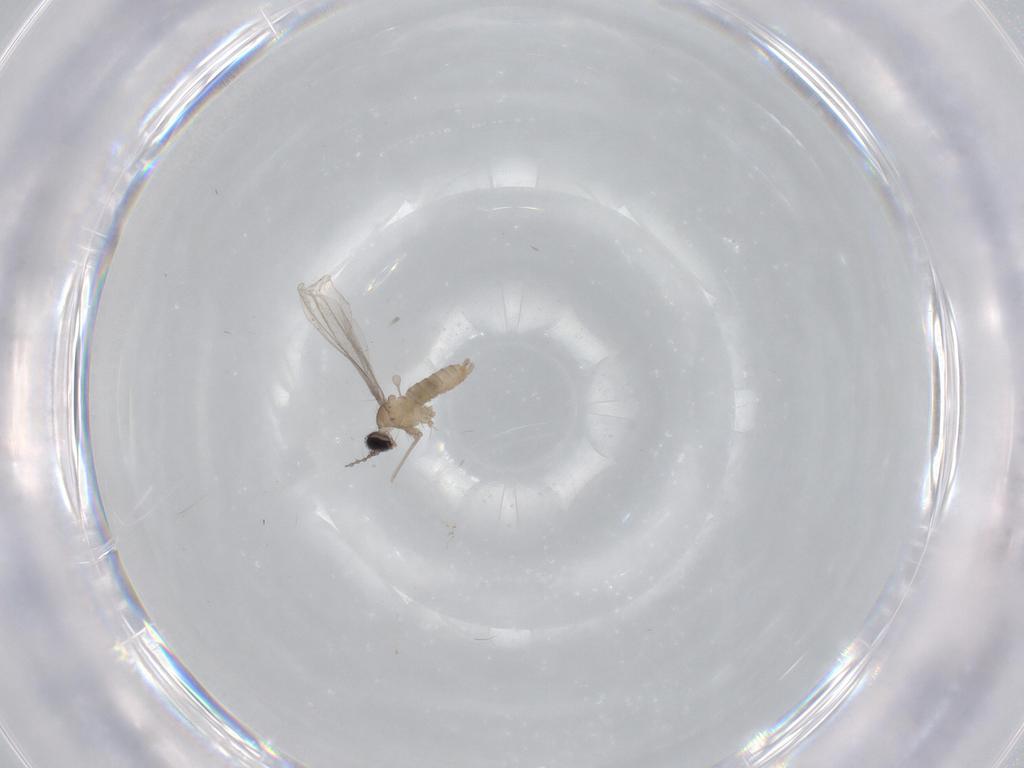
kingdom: Animalia
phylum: Arthropoda
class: Insecta
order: Diptera
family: Cecidomyiidae
